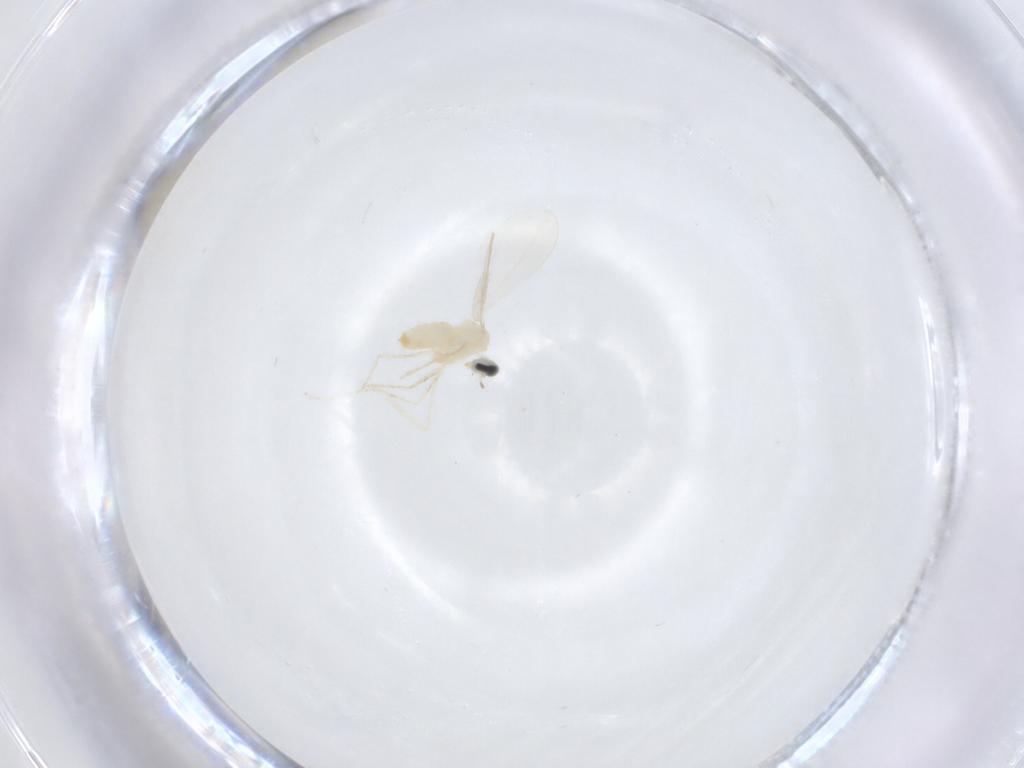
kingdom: Animalia
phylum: Arthropoda
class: Insecta
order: Diptera
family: Cecidomyiidae
